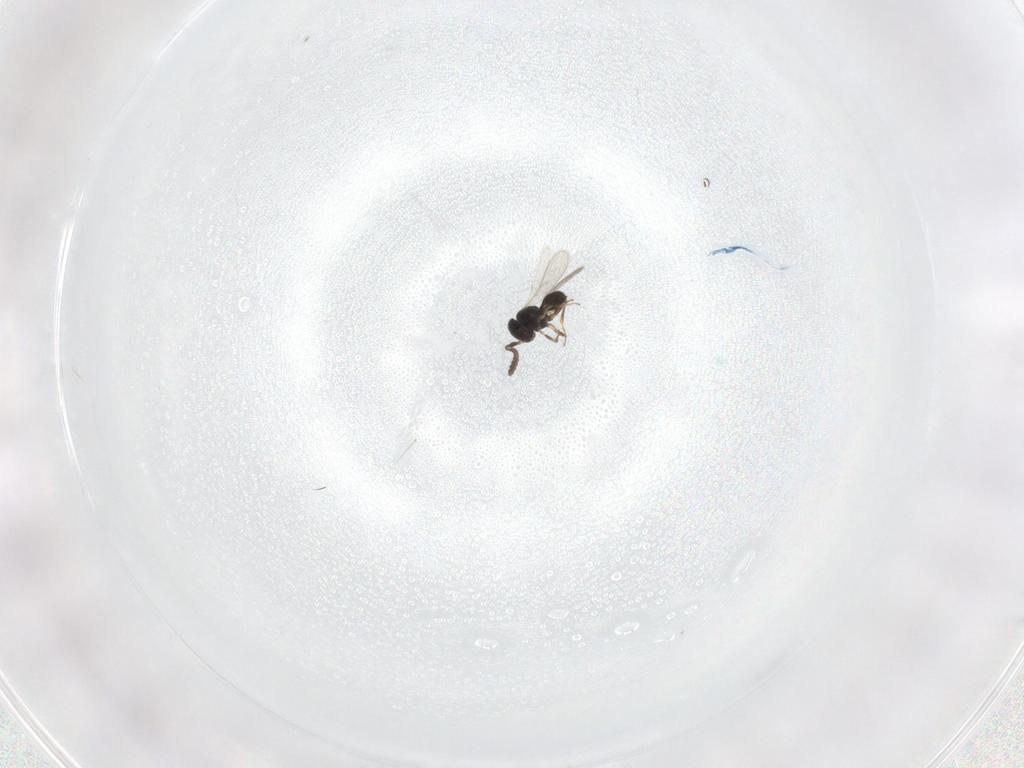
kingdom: Animalia
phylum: Arthropoda
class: Insecta
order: Hymenoptera
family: Scelionidae
